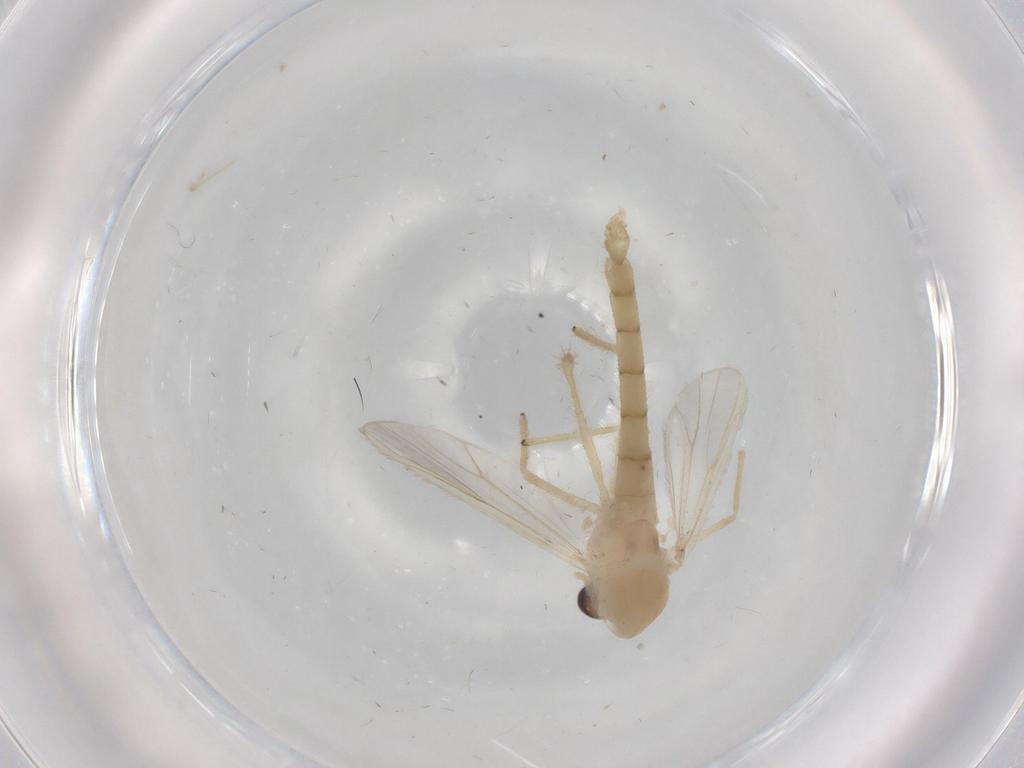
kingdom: Animalia
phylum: Arthropoda
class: Insecta
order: Diptera
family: Chironomidae
